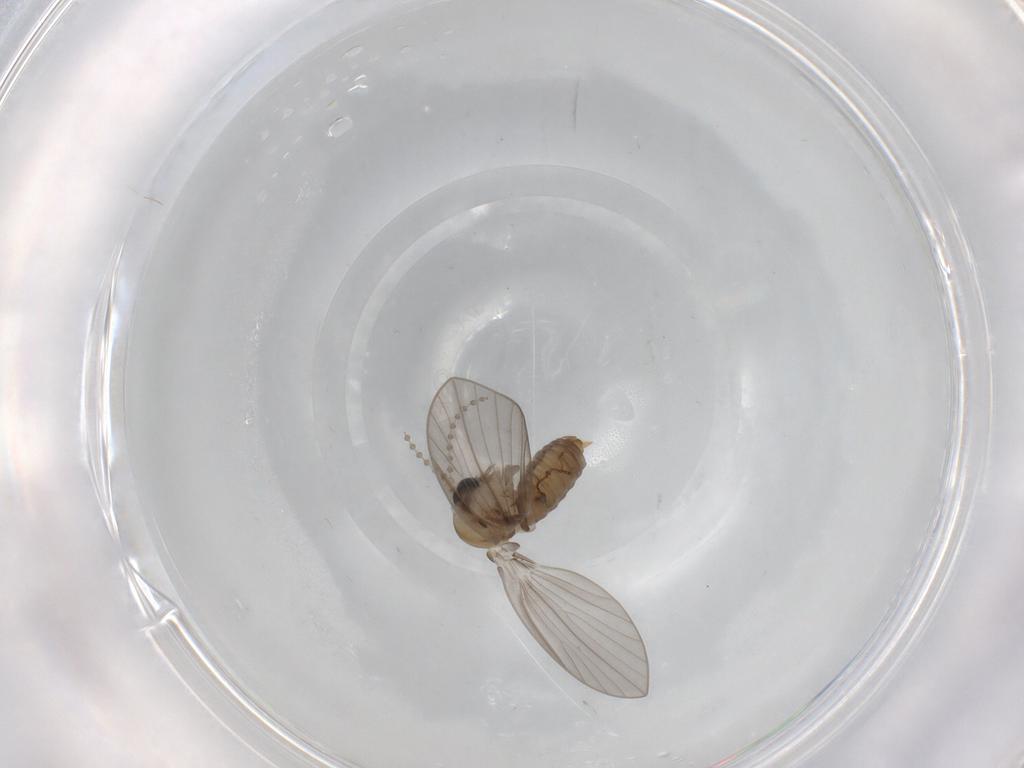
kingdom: Animalia
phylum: Arthropoda
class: Insecta
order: Diptera
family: Psychodidae
